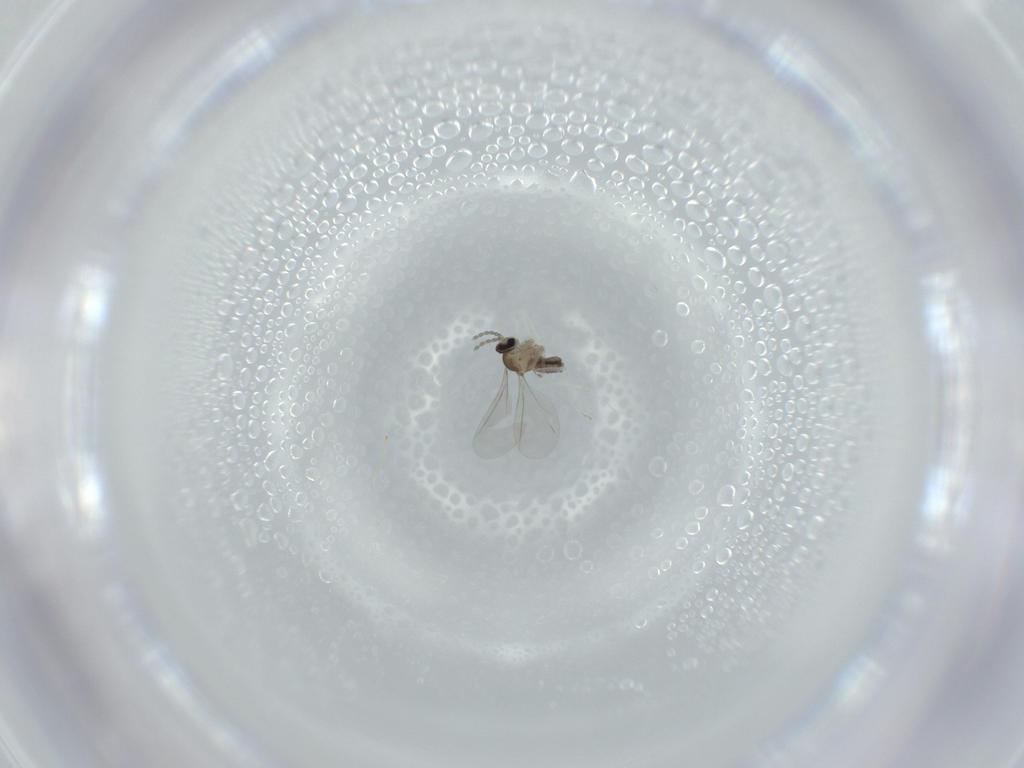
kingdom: Animalia
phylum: Arthropoda
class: Insecta
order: Diptera
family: Cecidomyiidae
